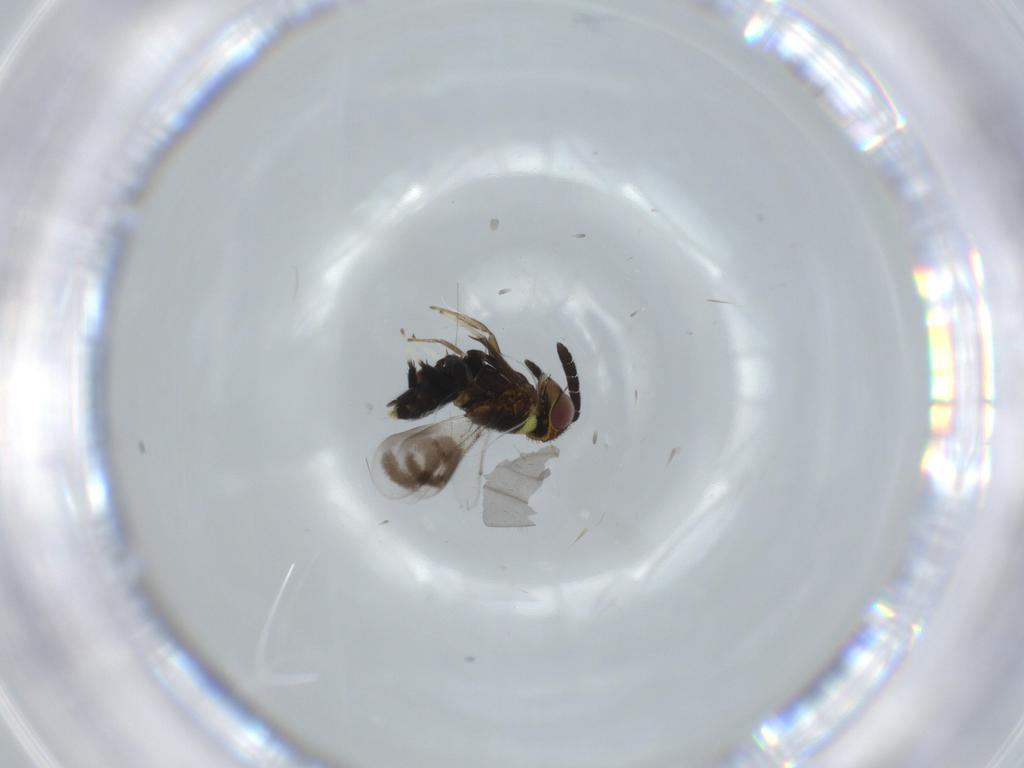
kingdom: Animalia
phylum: Arthropoda
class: Insecta
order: Hymenoptera
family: Aphelinidae
